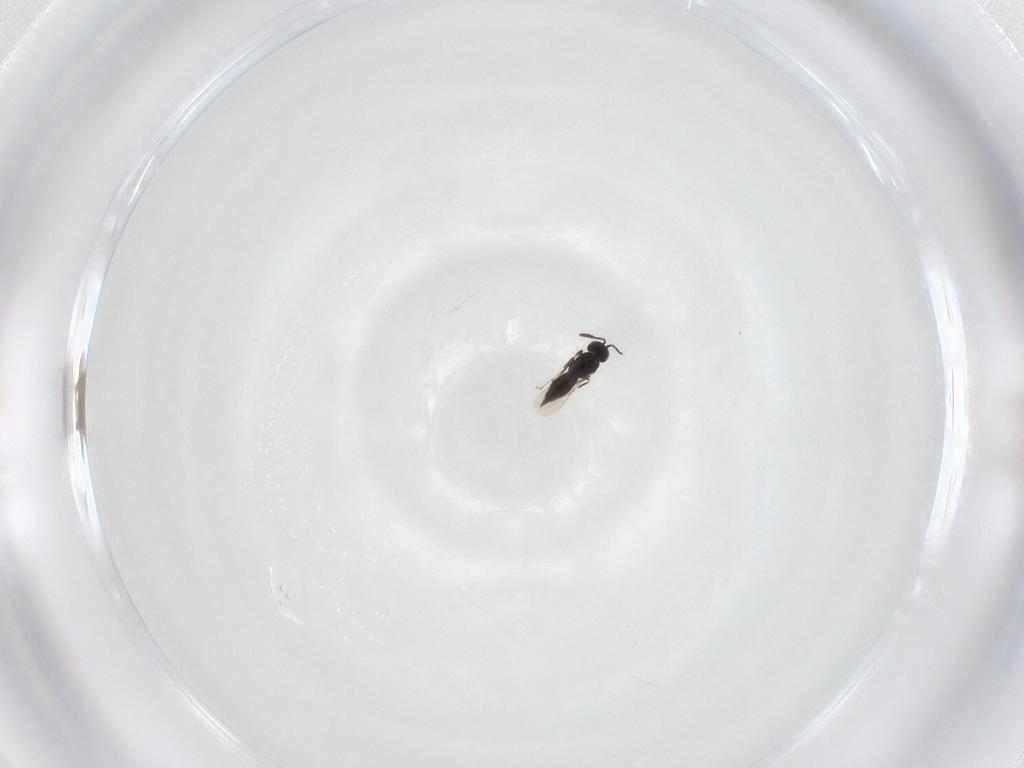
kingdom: Animalia
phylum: Arthropoda
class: Insecta
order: Hymenoptera
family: Scelionidae
